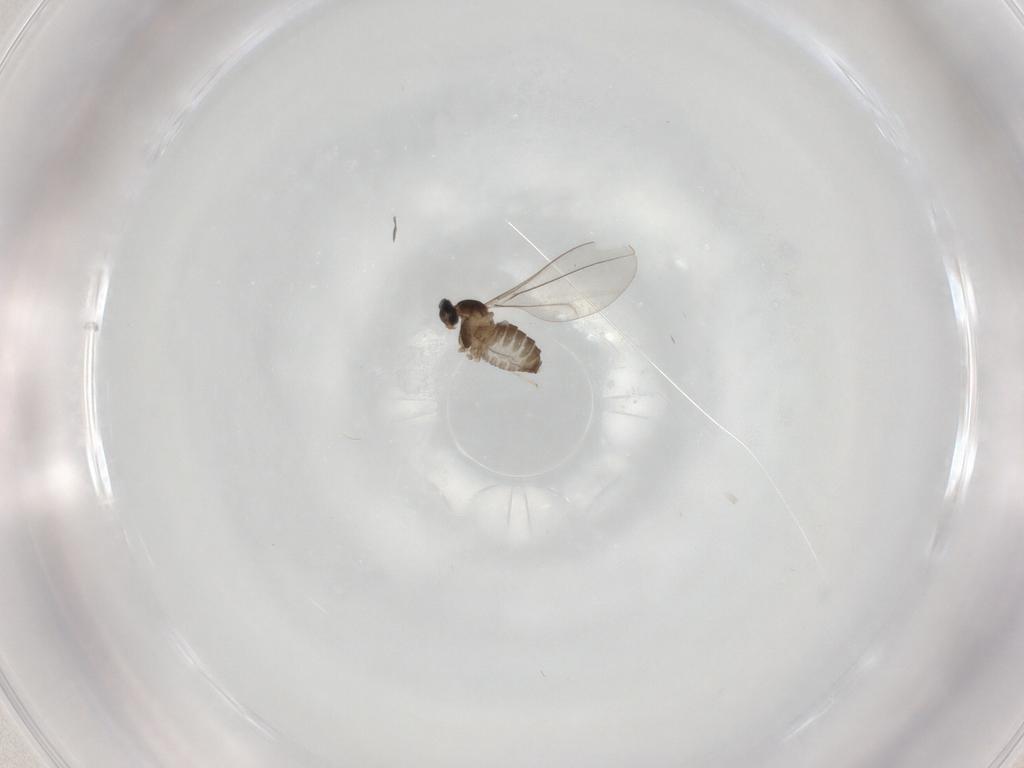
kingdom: Animalia
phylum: Arthropoda
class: Insecta
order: Diptera
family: Cecidomyiidae
